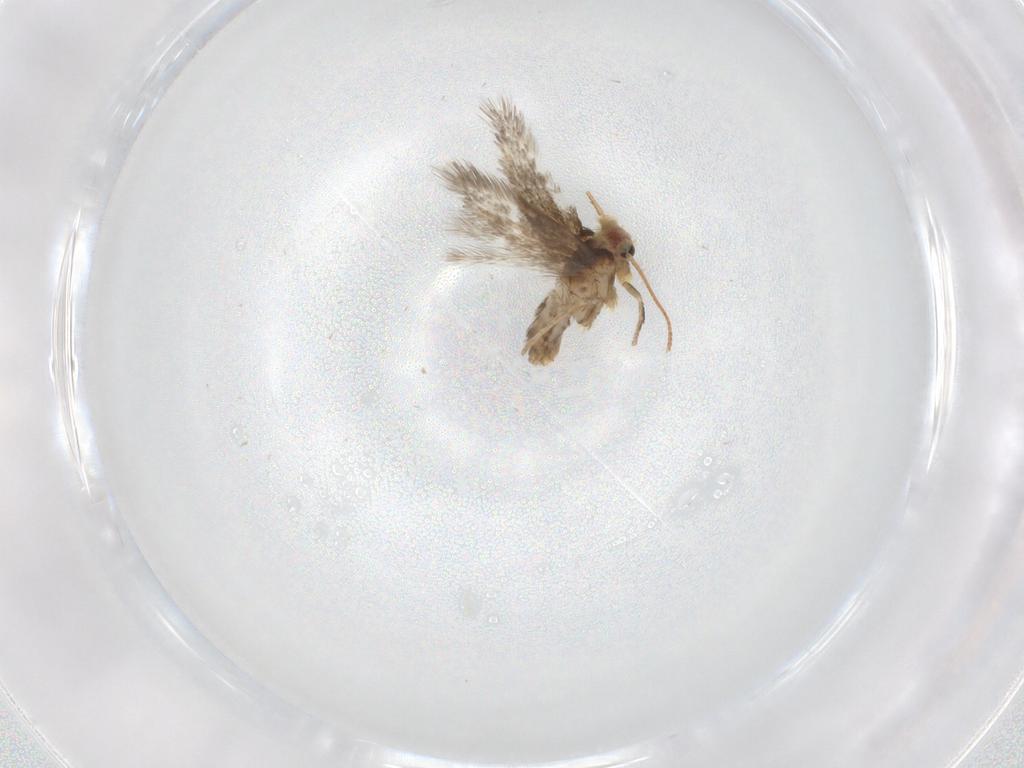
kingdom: Animalia
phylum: Arthropoda
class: Insecta
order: Lepidoptera
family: Nepticulidae
